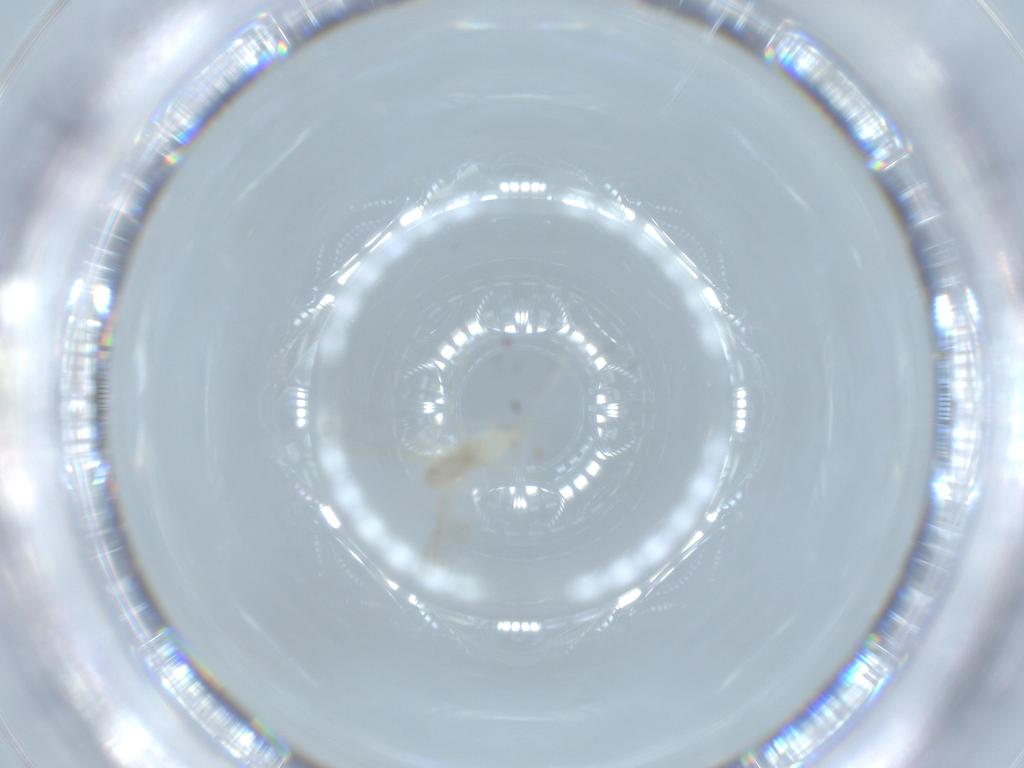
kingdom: Animalia
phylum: Arthropoda
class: Insecta
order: Diptera
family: Cecidomyiidae
